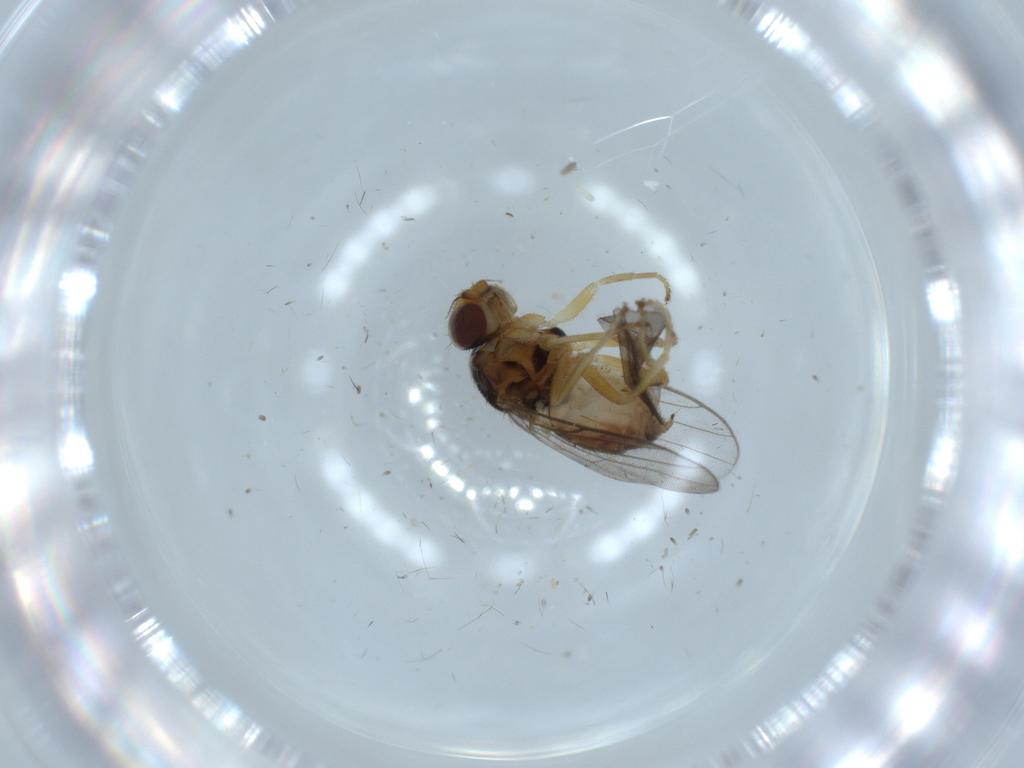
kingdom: Animalia
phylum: Arthropoda
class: Insecta
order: Diptera
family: Chloropidae
